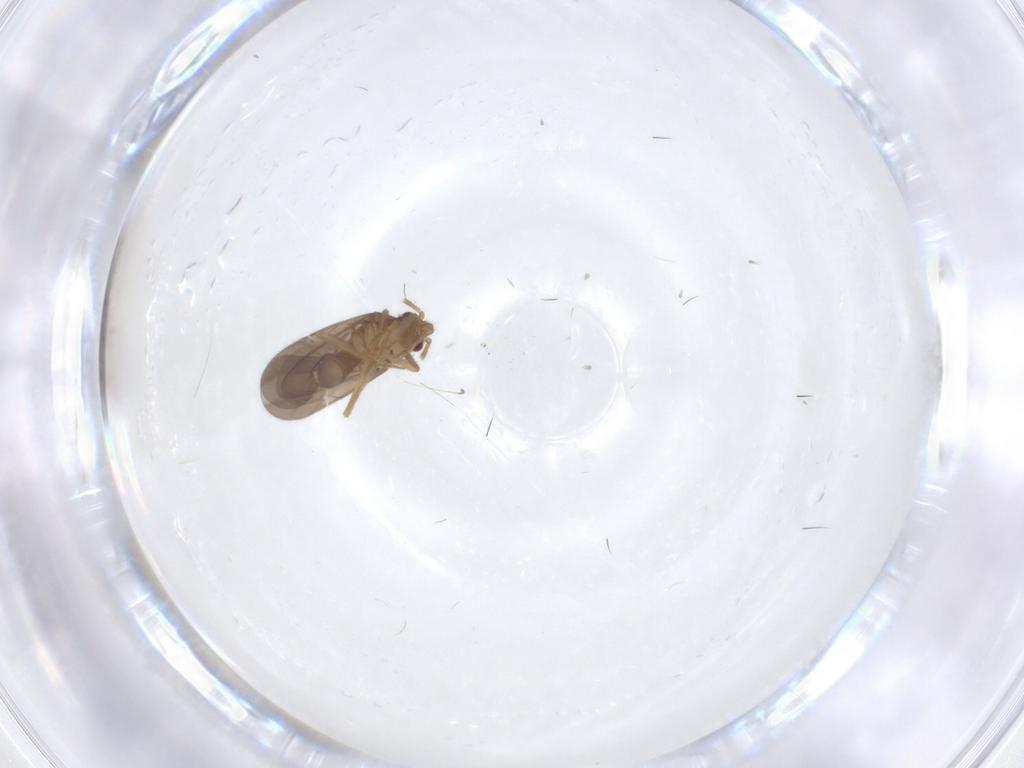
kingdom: Animalia
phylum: Arthropoda
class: Insecta
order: Hemiptera
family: Ceratocombidae
